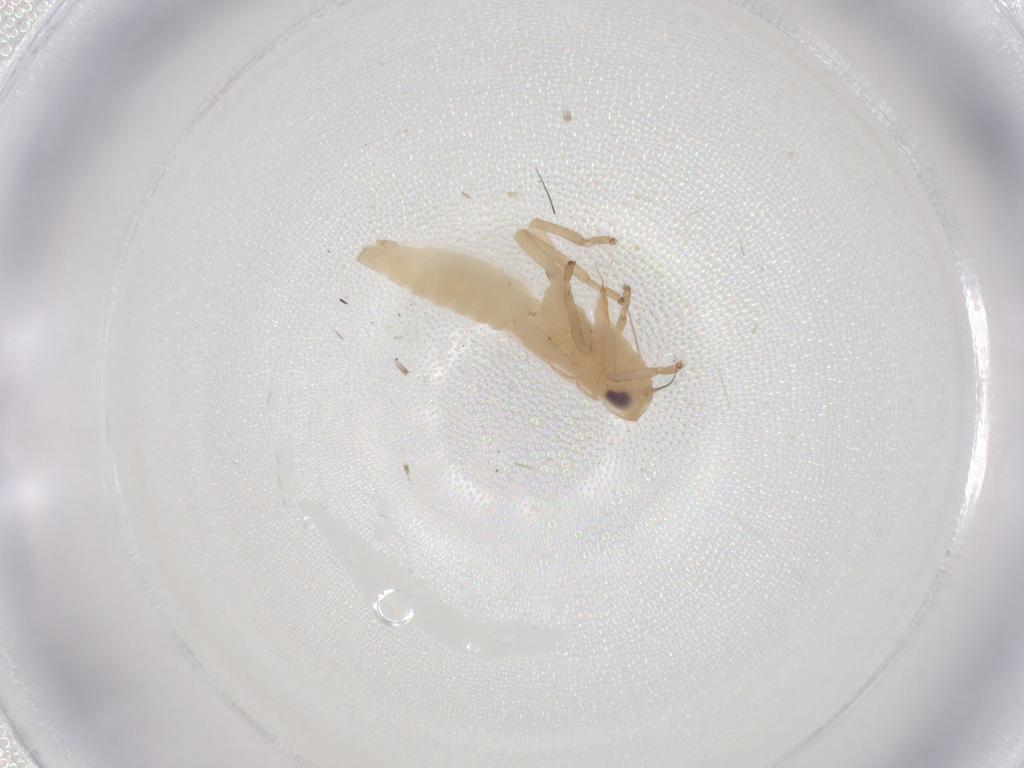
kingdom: Animalia
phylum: Arthropoda
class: Insecta
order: Hemiptera
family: Cicadellidae
